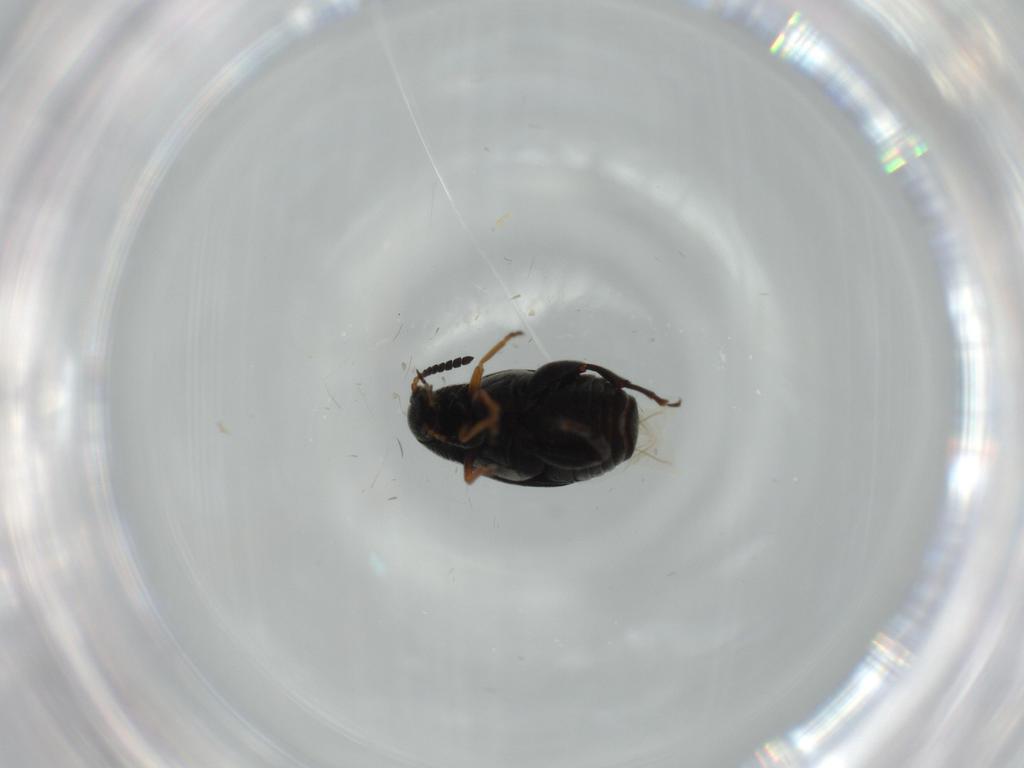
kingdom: Animalia
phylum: Arthropoda
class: Insecta
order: Coleoptera
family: Chrysomelidae
